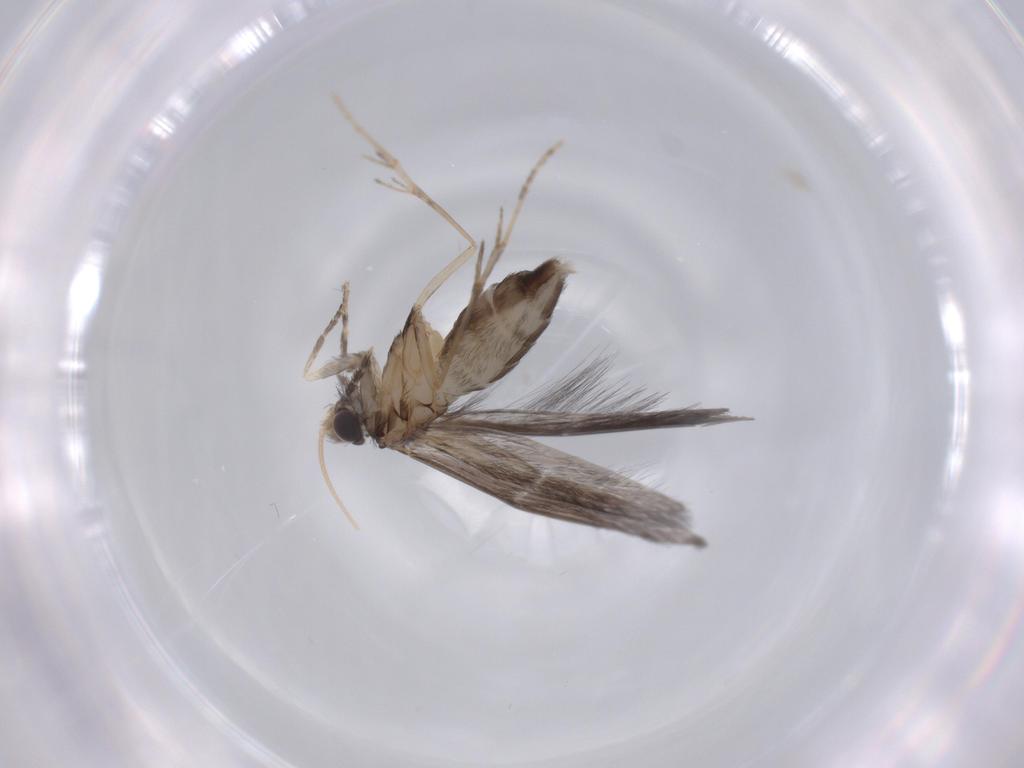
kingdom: Animalia
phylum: Arthropoda
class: Insecta
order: Trichoptera
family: Hydroptilidae
